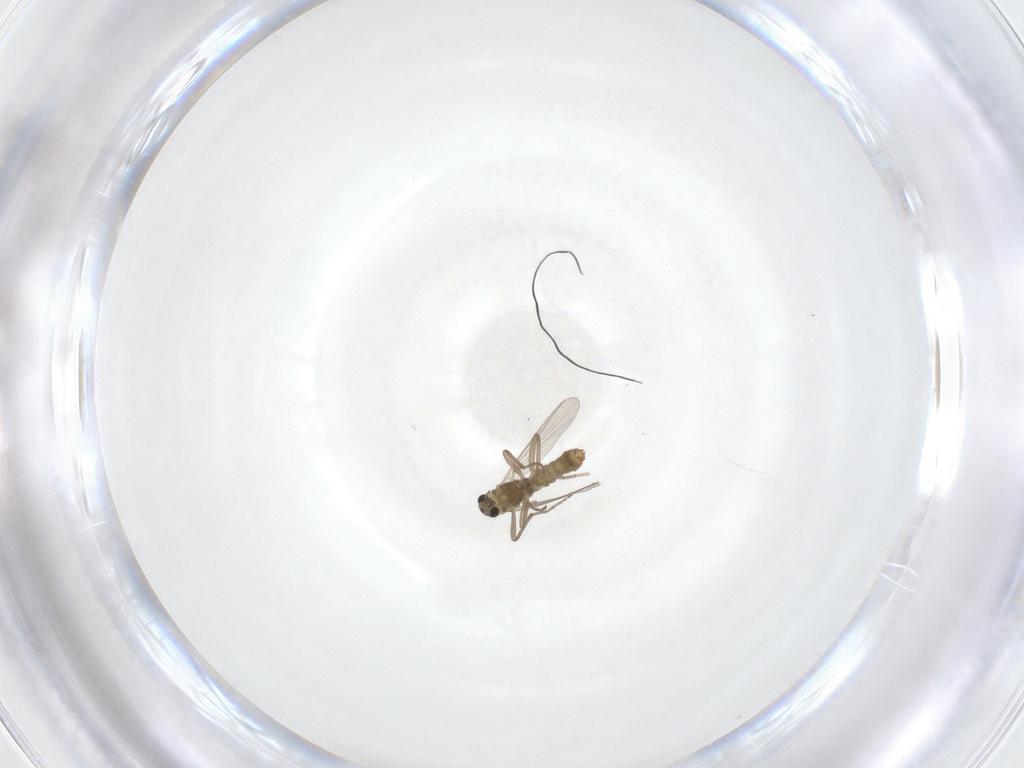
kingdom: Animalia
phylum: Arthropoda
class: Insecta
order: Diptera
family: Chironomidae
